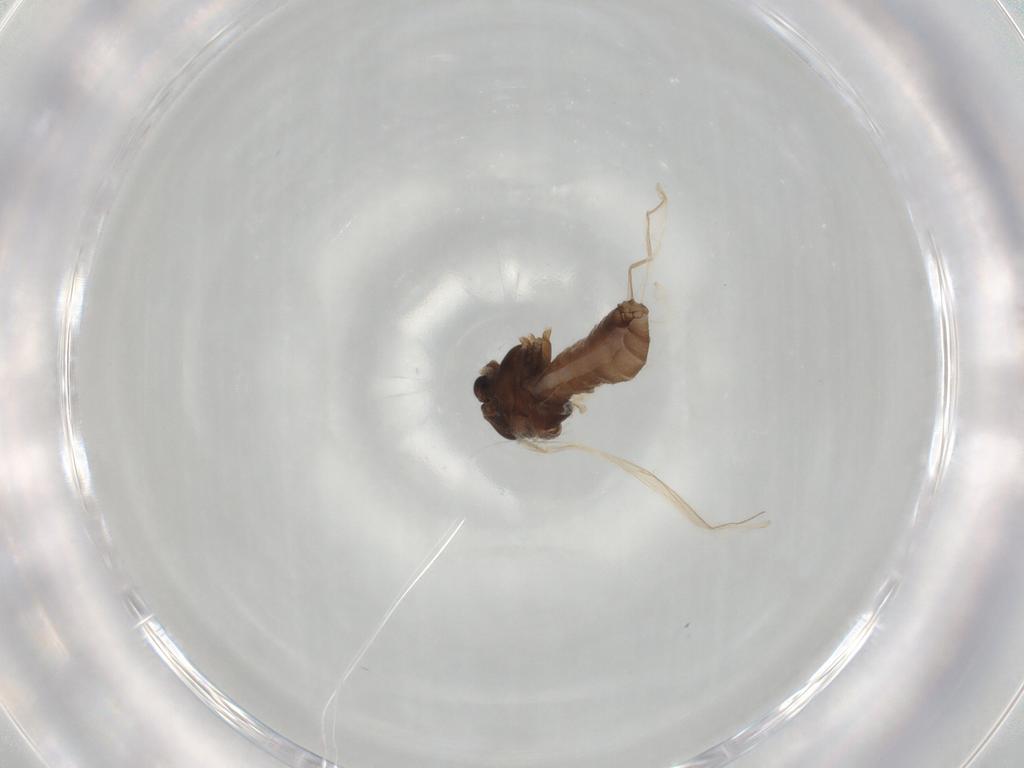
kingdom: Animalia
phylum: Arthropoda
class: Insecta
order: Diptera
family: Chironomidae
